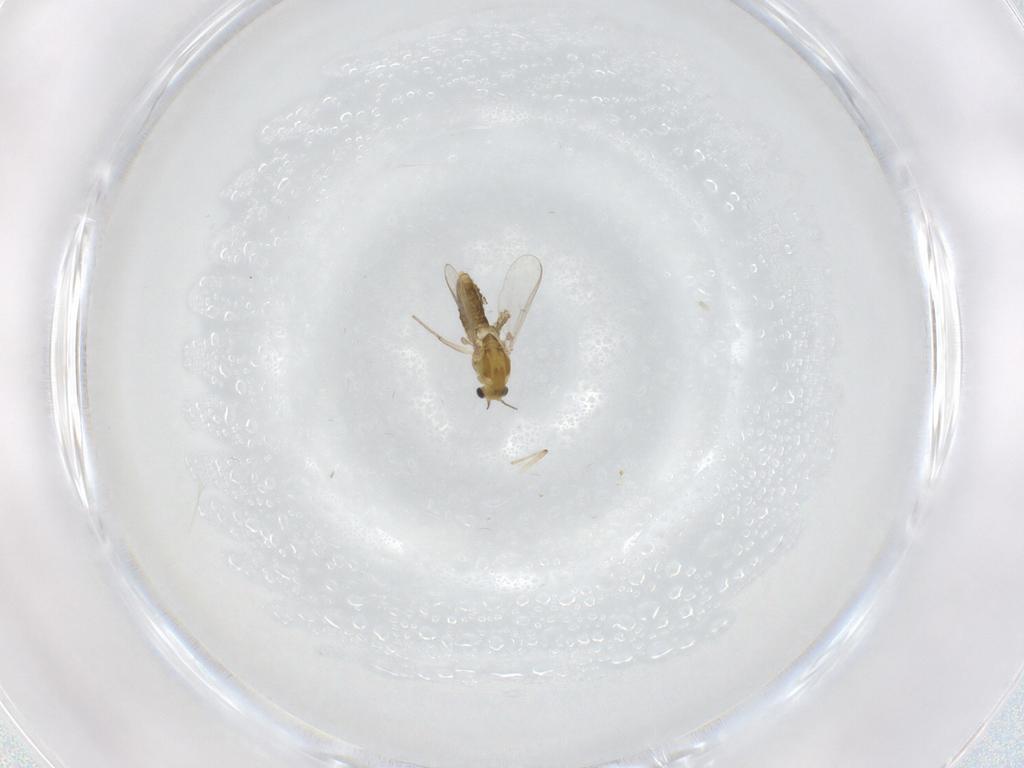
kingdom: Animalia
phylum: Arthropoda
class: Insecta
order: Diptera
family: Chironomidae
